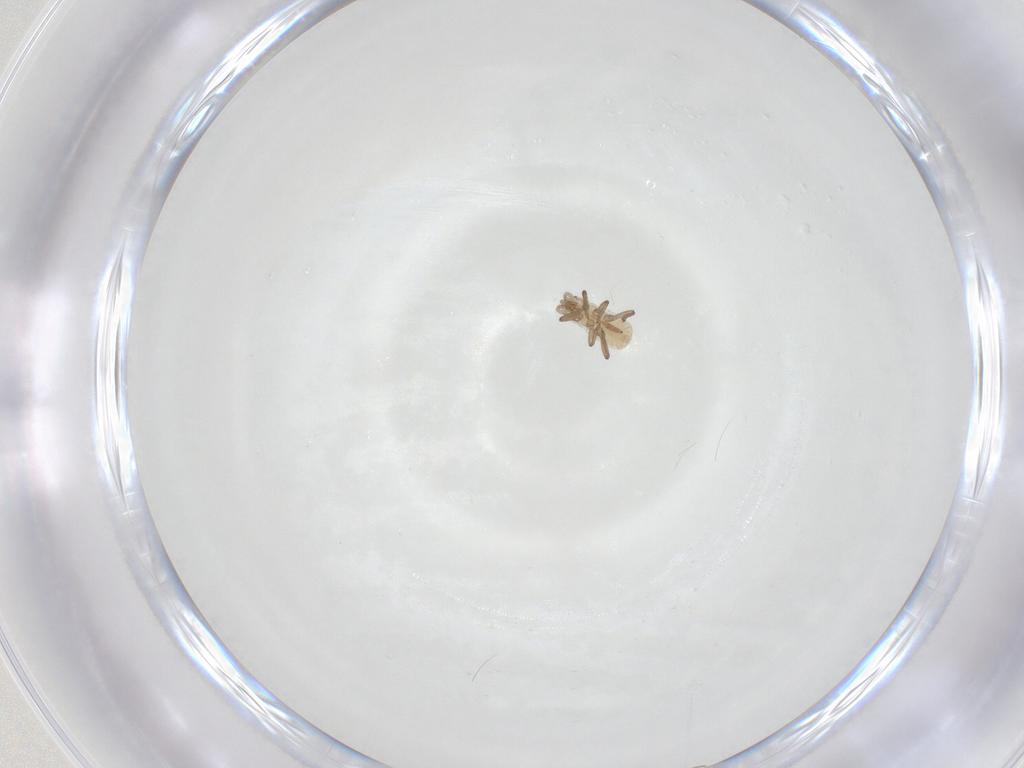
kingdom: Animalia
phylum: Arthropoda
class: Insecta
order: Hemiptera
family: Aphididae
